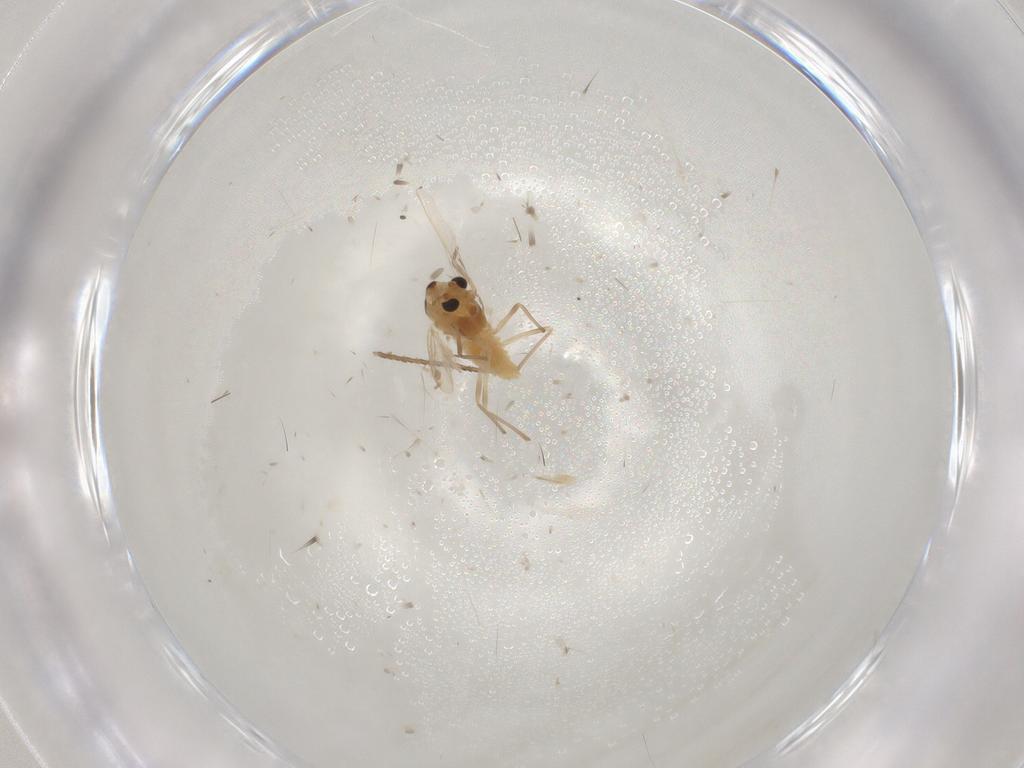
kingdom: Animalia
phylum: Arthropoda
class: Insecta
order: Diptera
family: Chironomidae
